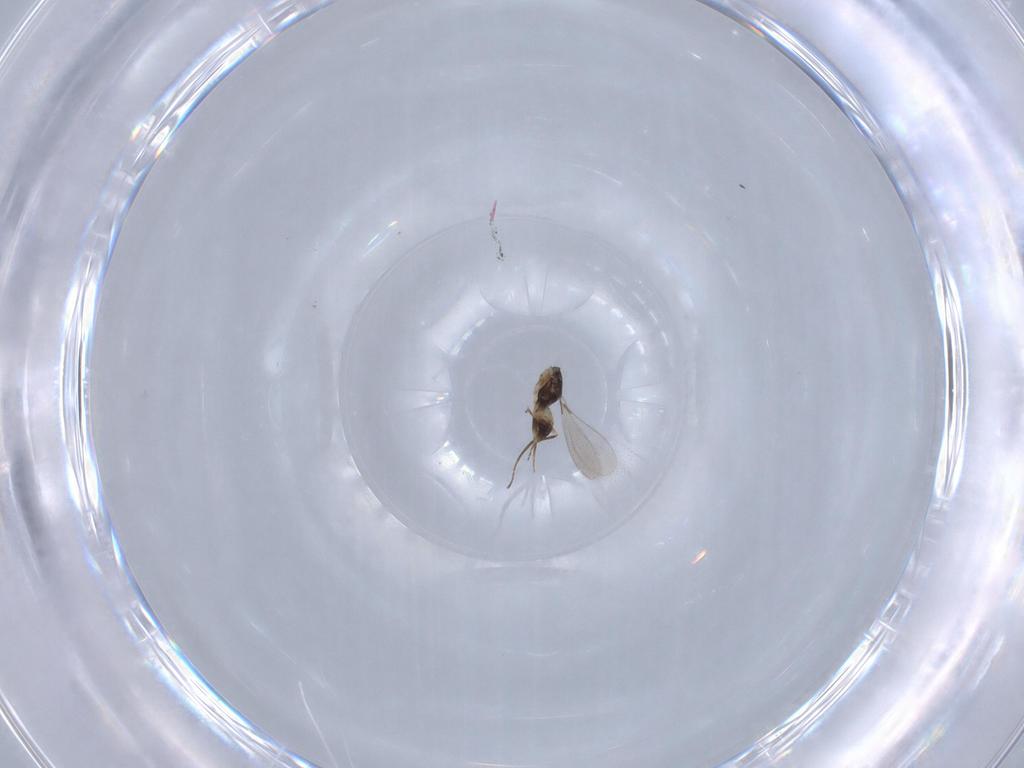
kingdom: Animalia
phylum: Arthropoda
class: Insecta
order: Hymenoptera
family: Mymaridae
